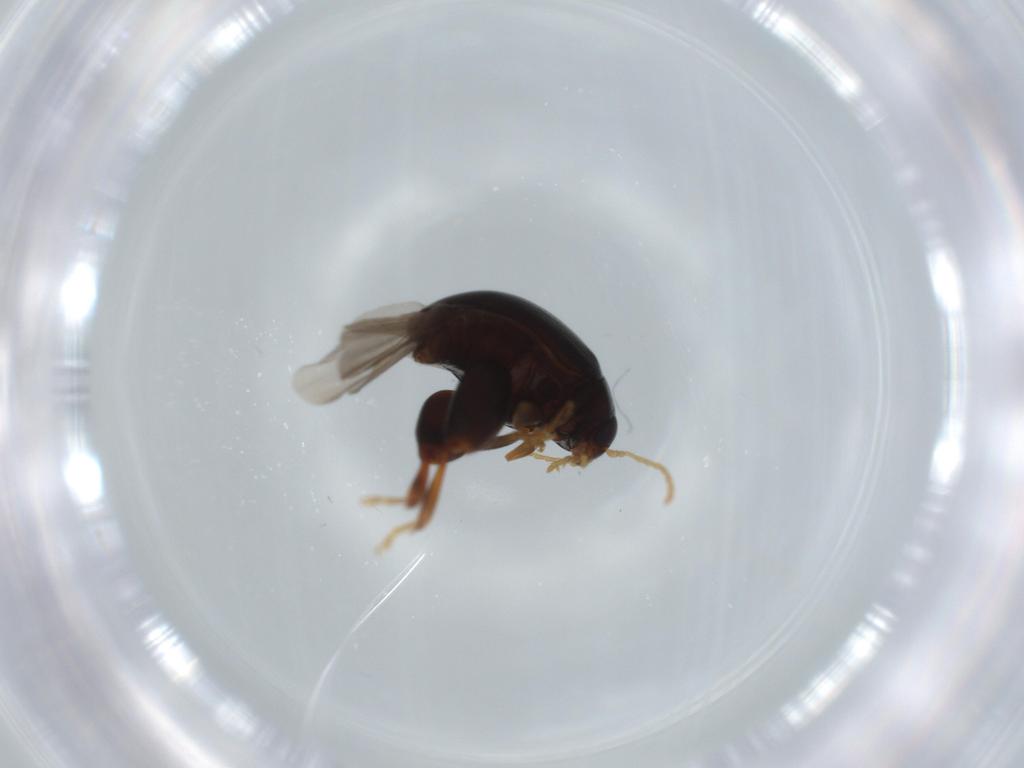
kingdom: Animalia
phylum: Arthropoda
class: Insecta
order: Coleoptera
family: Chrysomelidae
